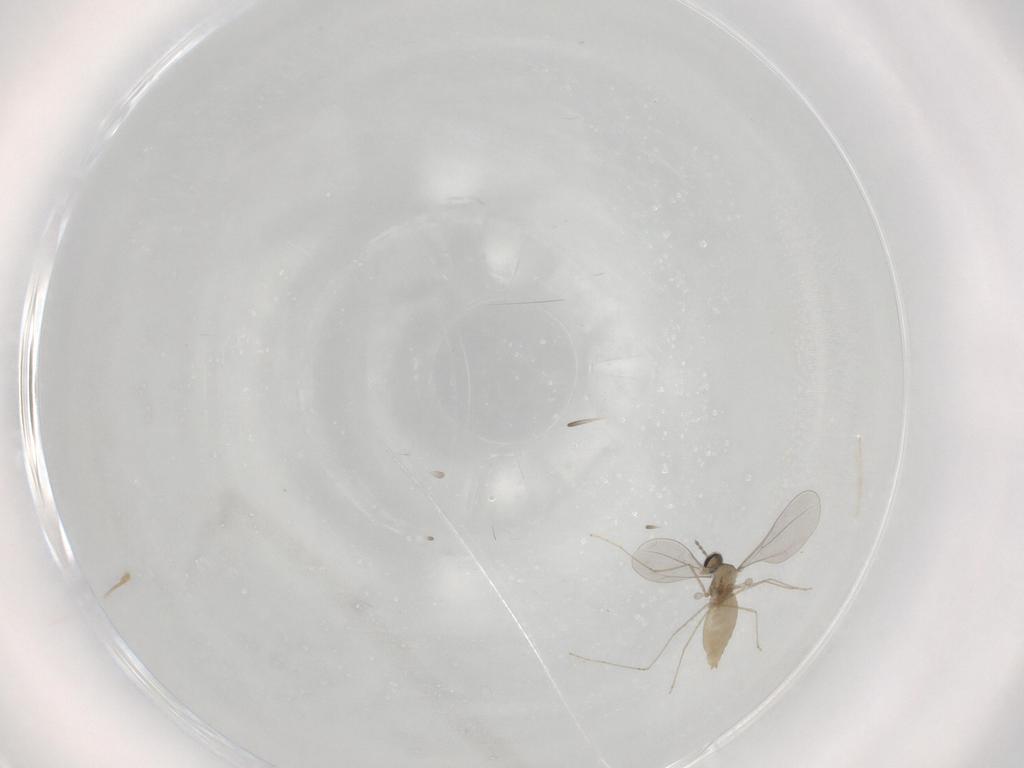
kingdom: Animalia
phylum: Arthropoda
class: Insecta
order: Diptera
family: Cecidomyiidae
